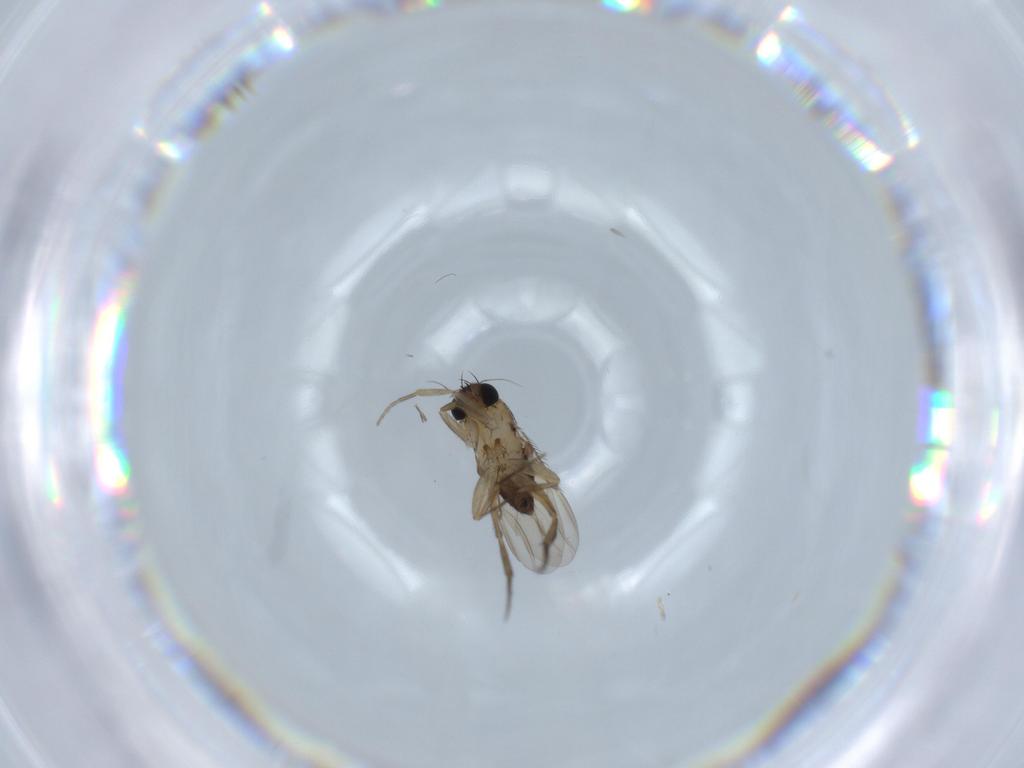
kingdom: Animalia
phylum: Arthropoda
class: Insecta
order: Diptera
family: Phoridae
